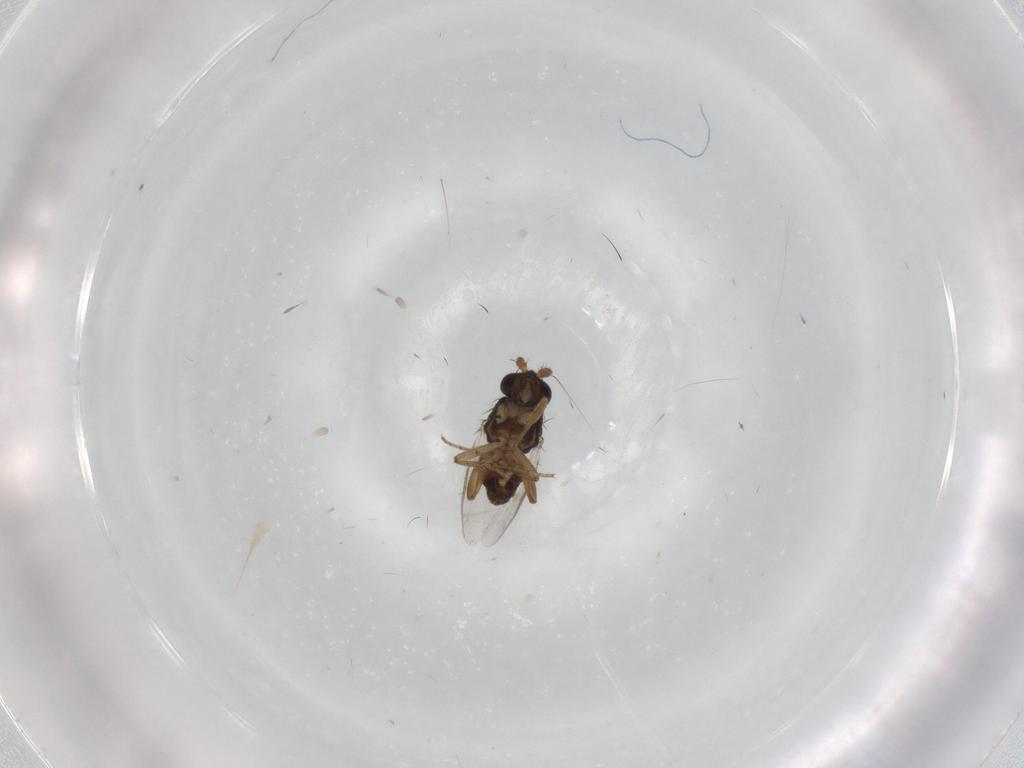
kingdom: Animalia
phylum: Arthropoda
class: Insecta
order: Diptera
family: Sphaeroceridae
